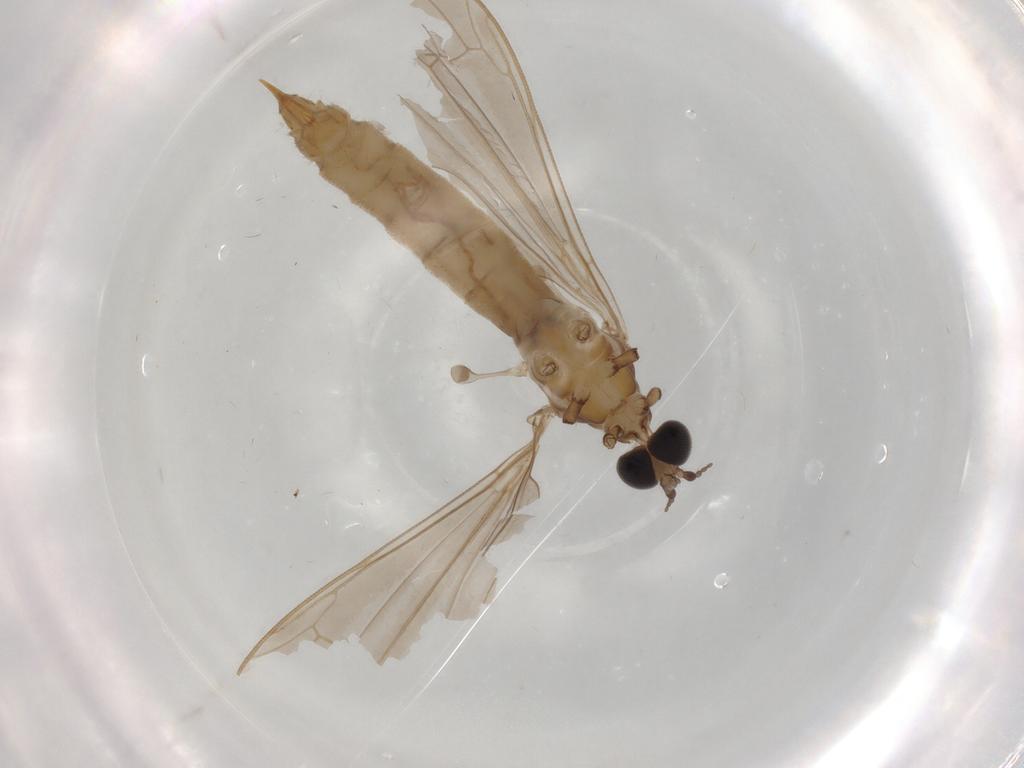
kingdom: Animalia
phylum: Arthropoda
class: Insecta
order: Diptera
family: Limoniidae
